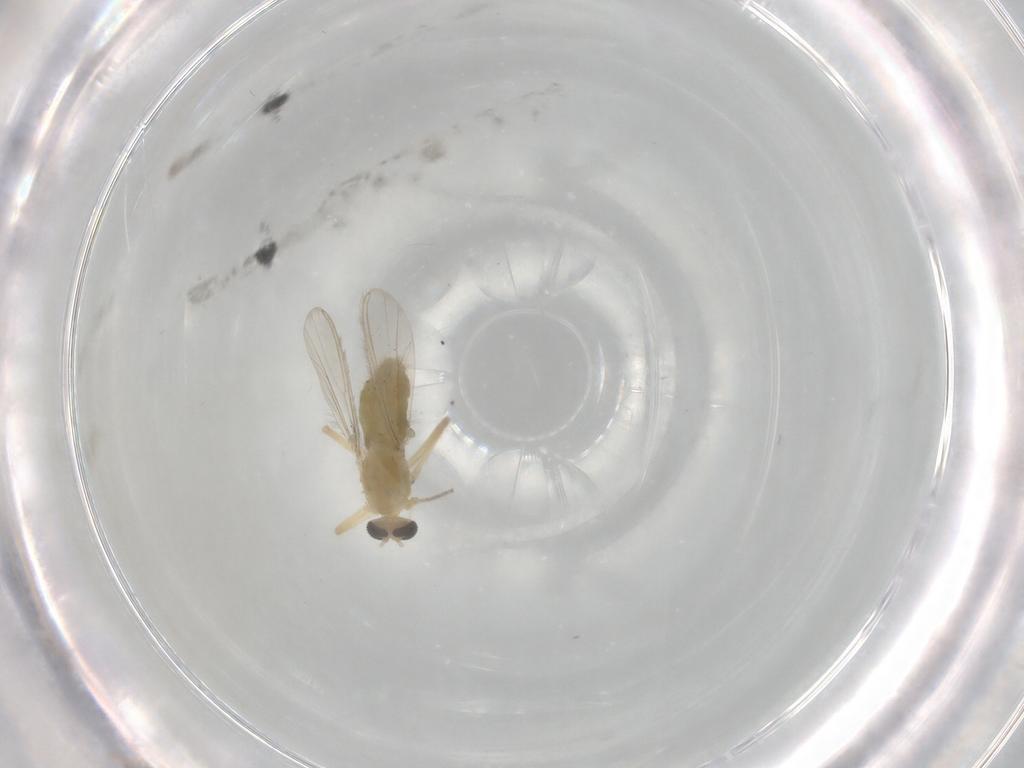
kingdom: Animalia
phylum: Arthropoda
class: Insecta
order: Diptera
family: Chironomidae
